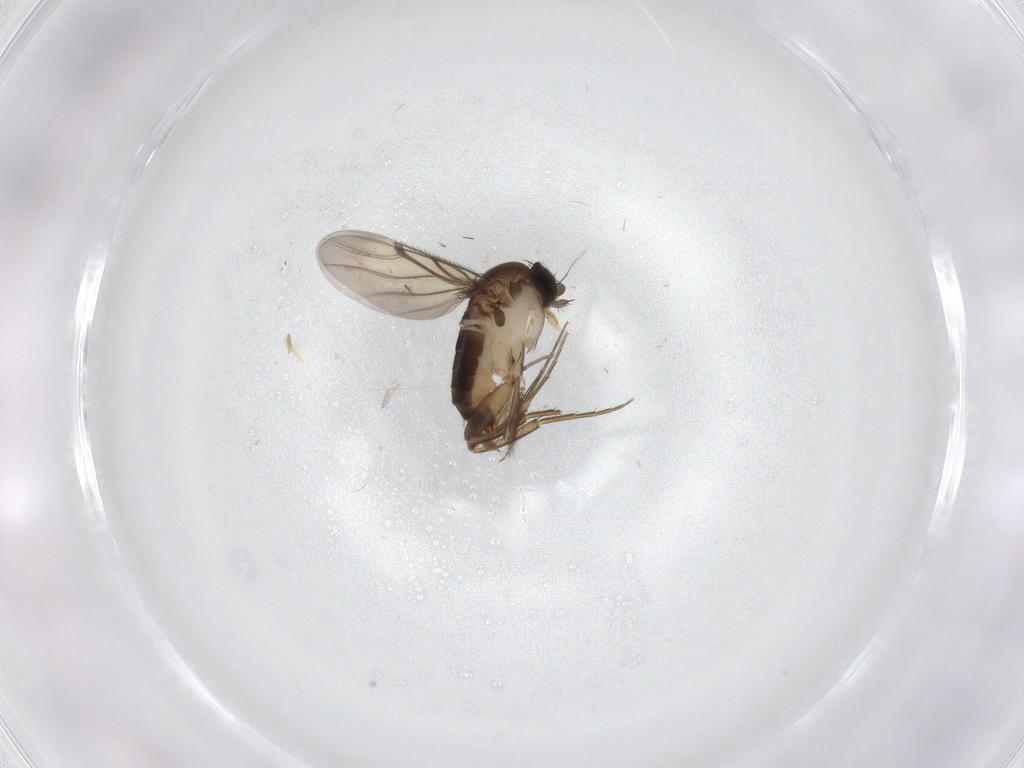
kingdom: Animalia
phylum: Arthropoda
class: Insecta
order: Diptera
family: Phoridae
